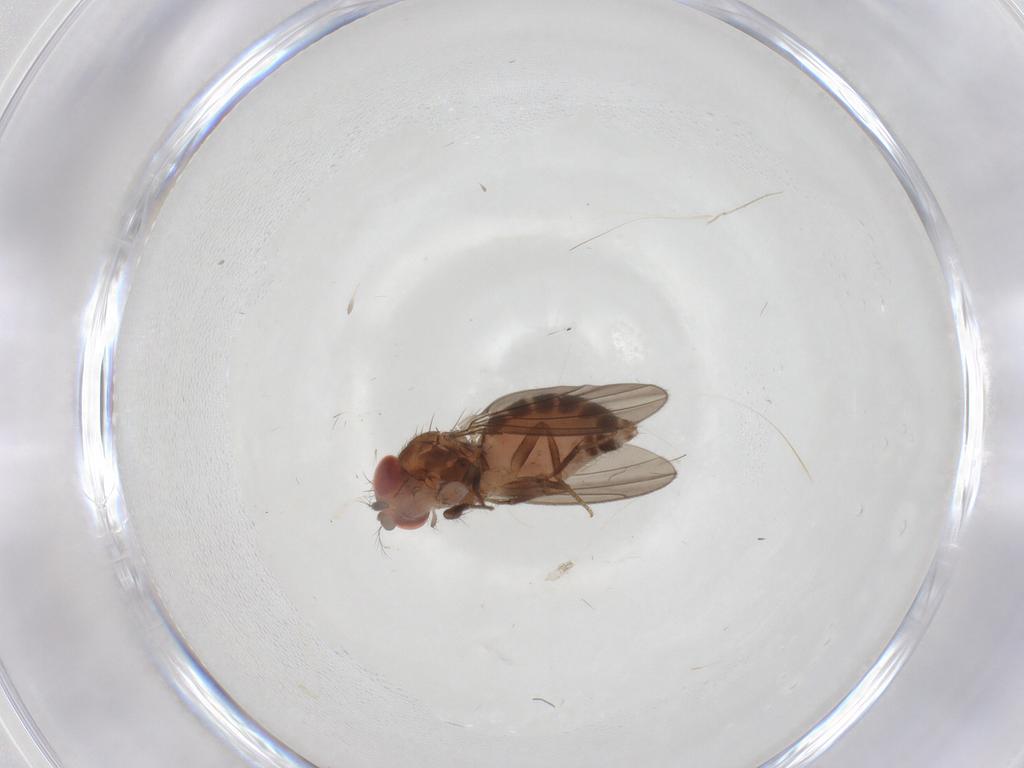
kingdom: Animalia
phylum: Arthropoda
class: Insecta
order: Diptera
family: Drosophilidae
